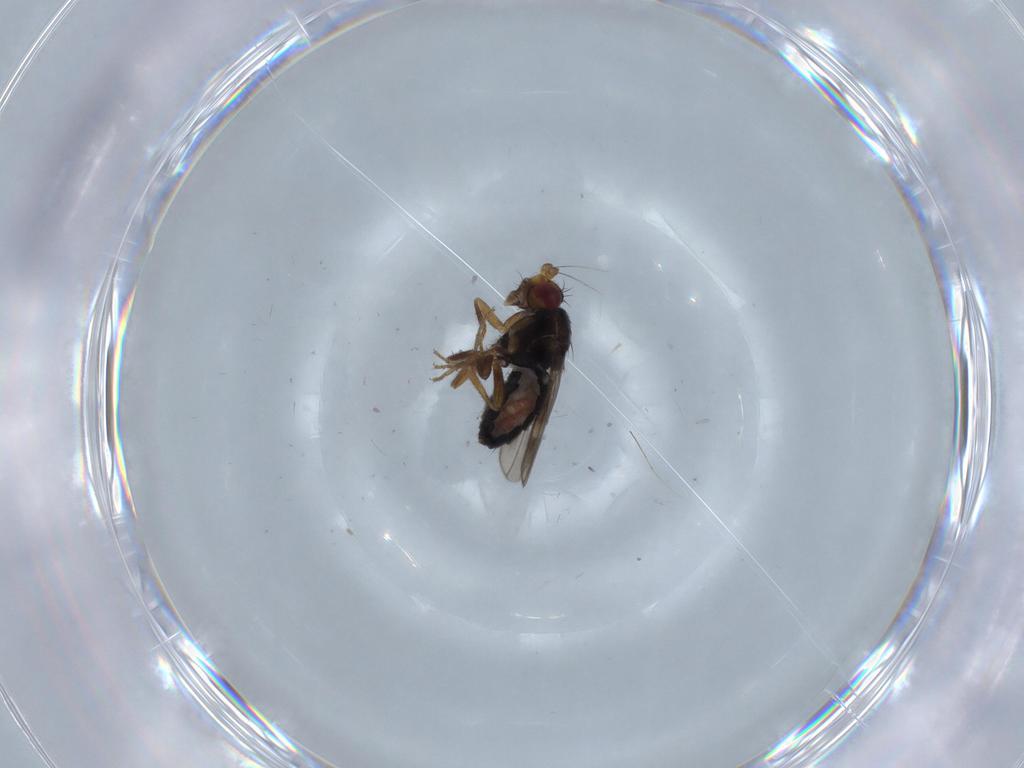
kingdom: Animalia
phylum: Arthropoda
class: Insecta
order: Diptera
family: Sphaeroceridae
